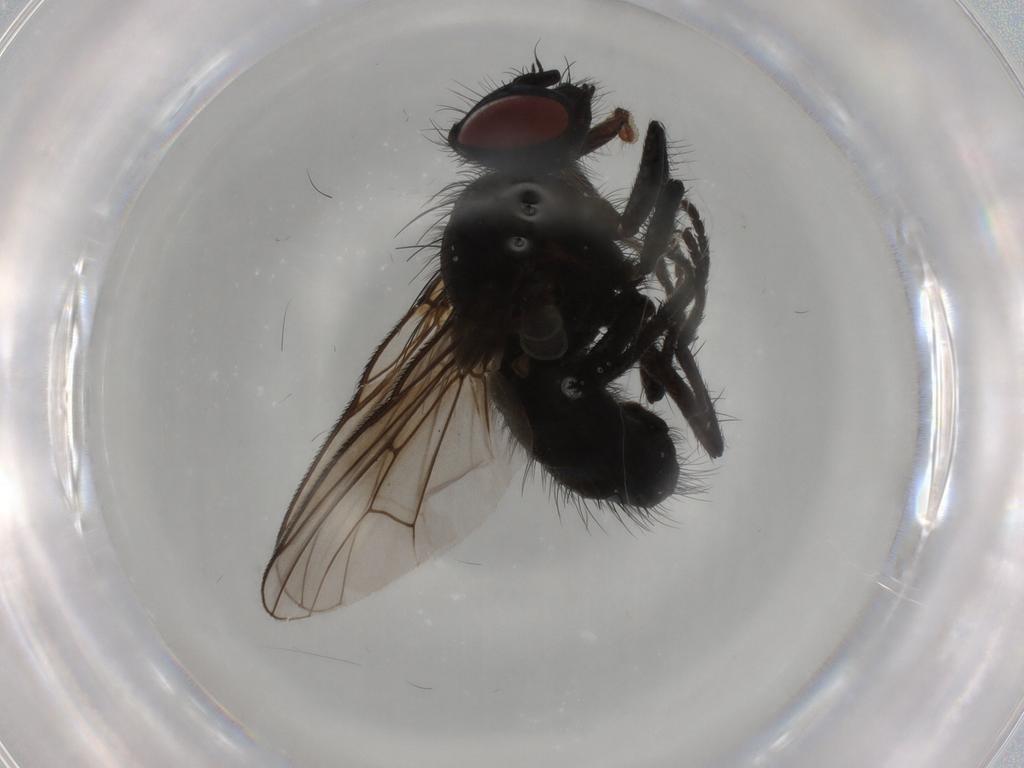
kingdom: Animalia
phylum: Arthropoda
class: Insecta
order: Diptera
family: Muscidae
